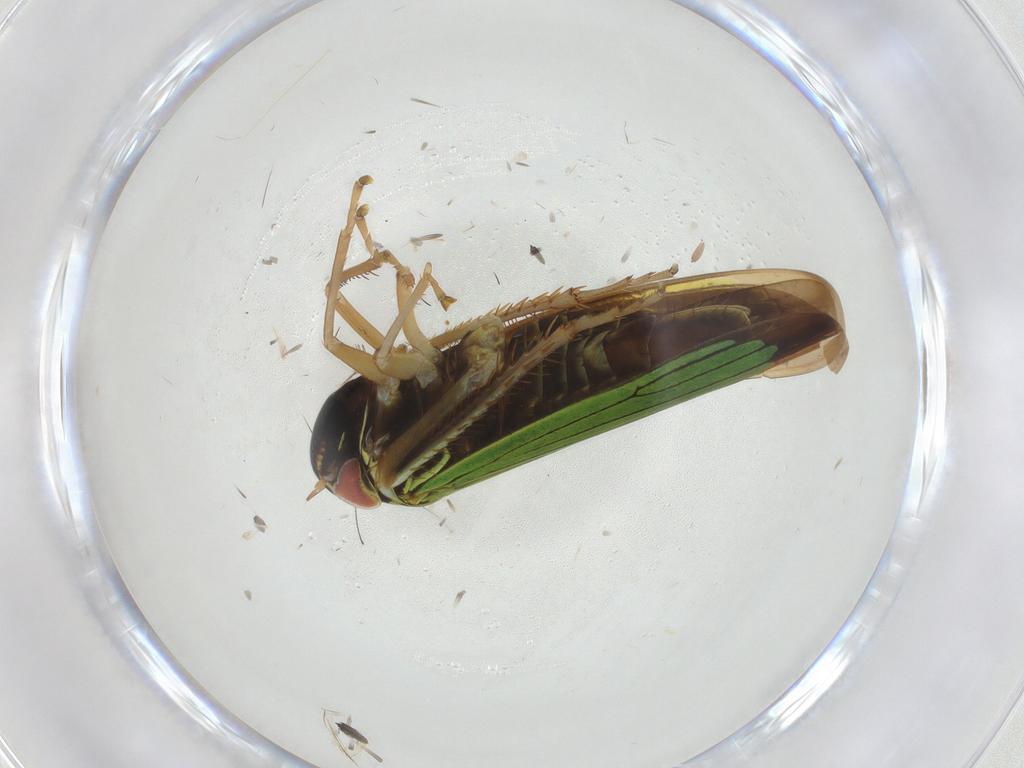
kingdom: Animalia
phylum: Arthropoda
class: Insecta
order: Hemiptera
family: Cicadellidae
